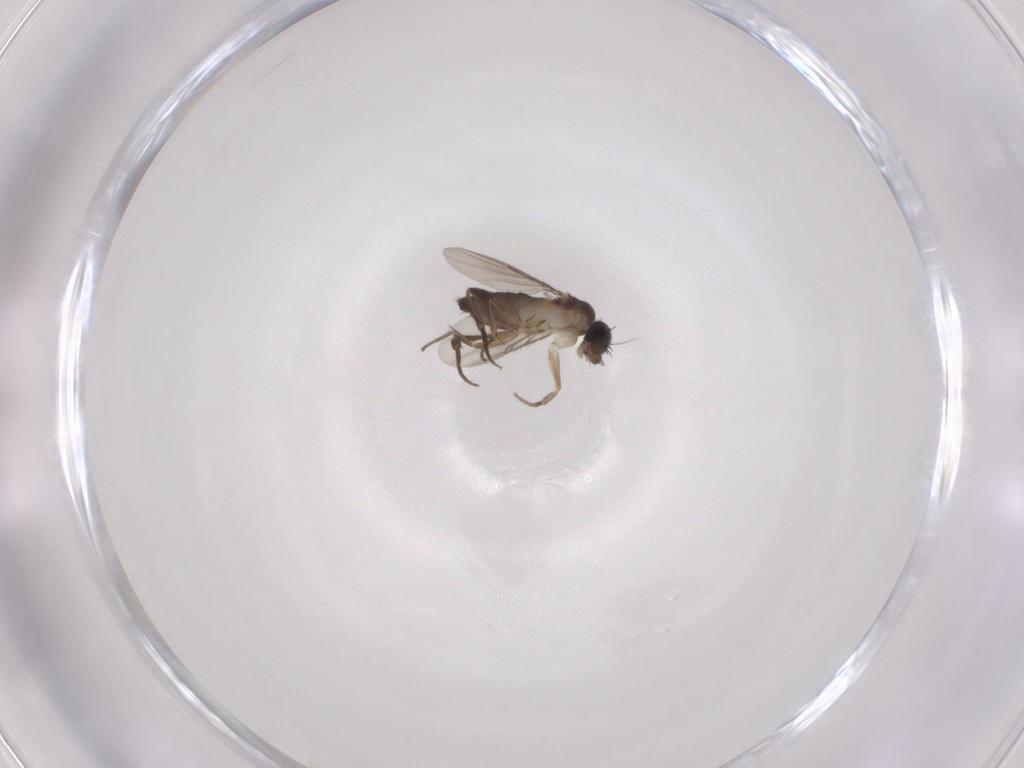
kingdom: Animalia
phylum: Arthropoda
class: Insecta
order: Diptera
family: Phoridae
